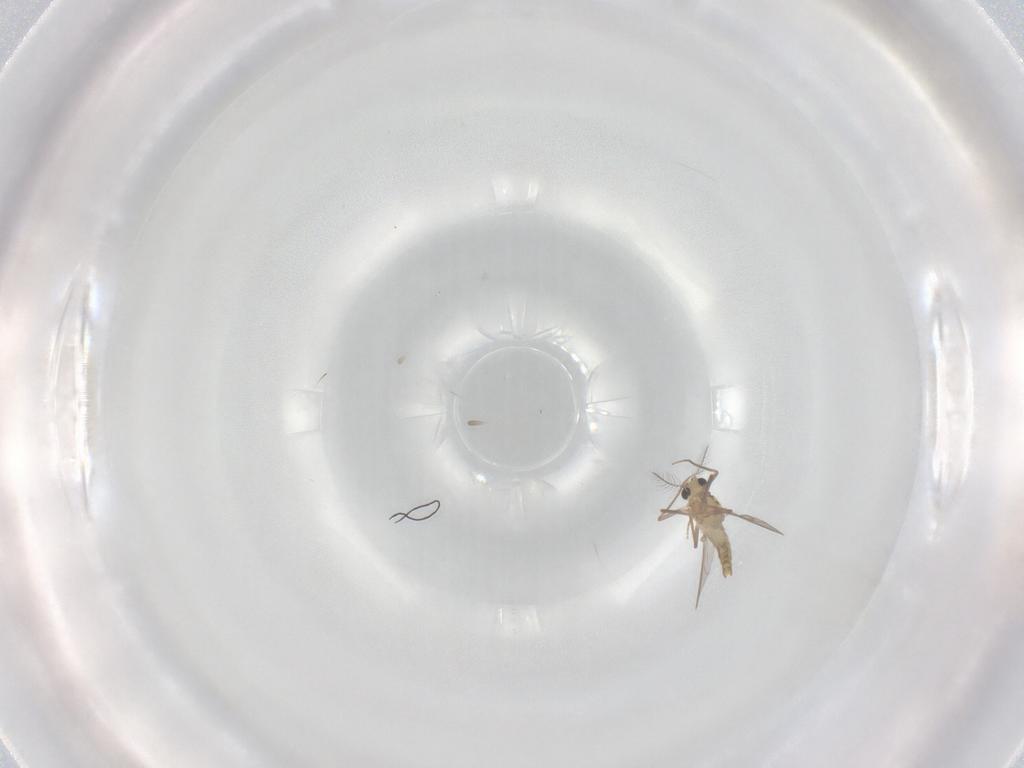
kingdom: Animalia
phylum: Arthropoda
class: Insecta
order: Diptera
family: Chironomidae
